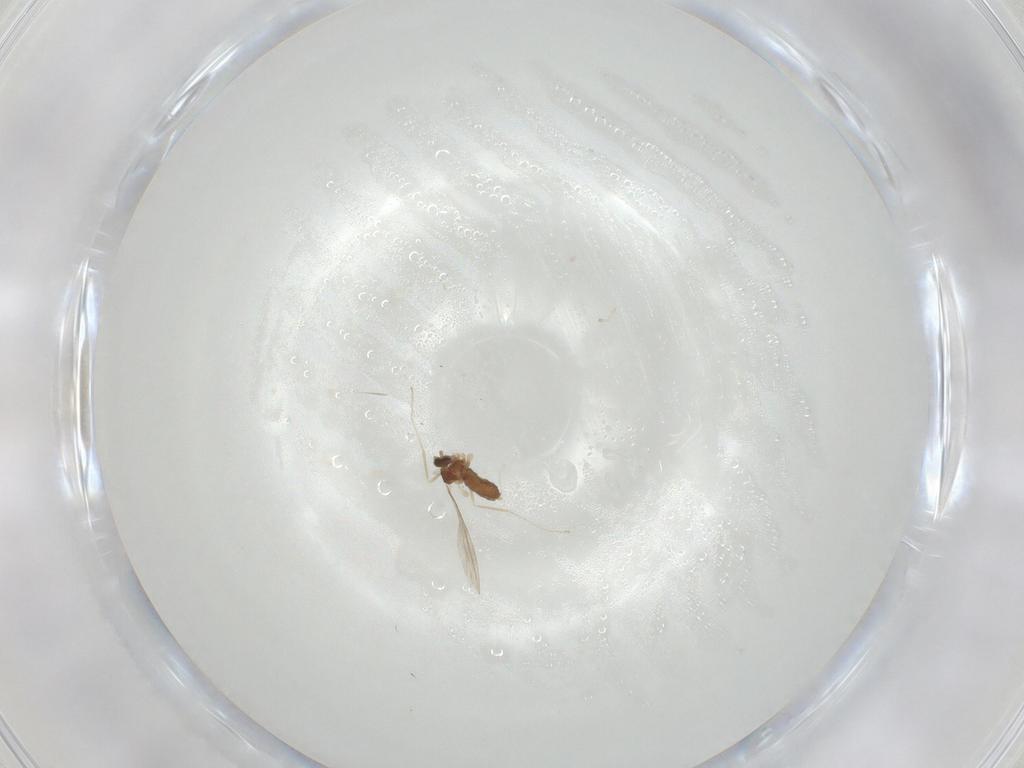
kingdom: Animalia
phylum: Arthropoda
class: Insecta
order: Diptera
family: Cecidomyiidae
